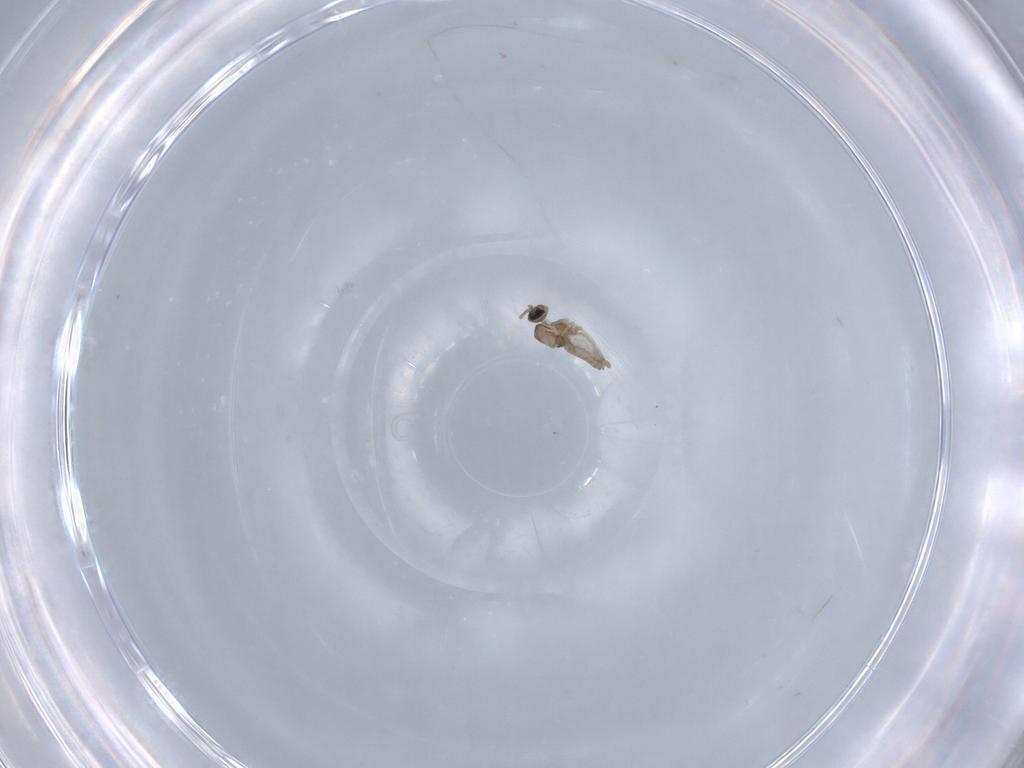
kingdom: Animalia
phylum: Arthropoda
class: Insecta
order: Diptera
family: Cecidomyiidae
